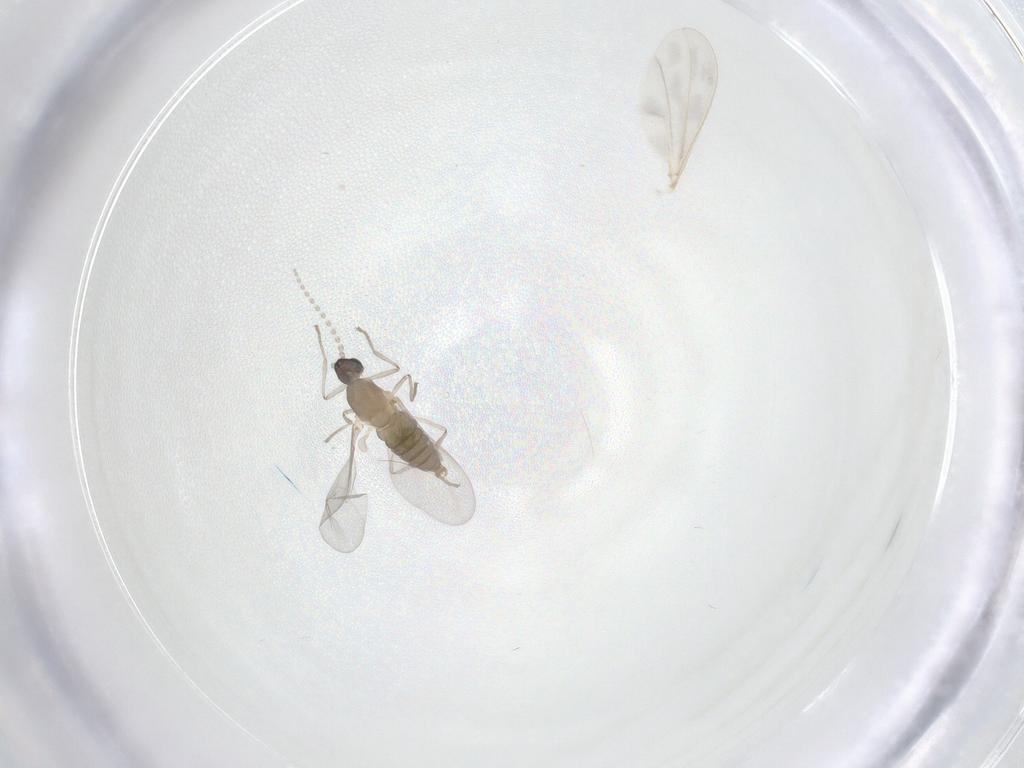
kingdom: Animalia
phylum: Arthropoda
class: Insecta
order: Diptera
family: Cecidomyiidae
